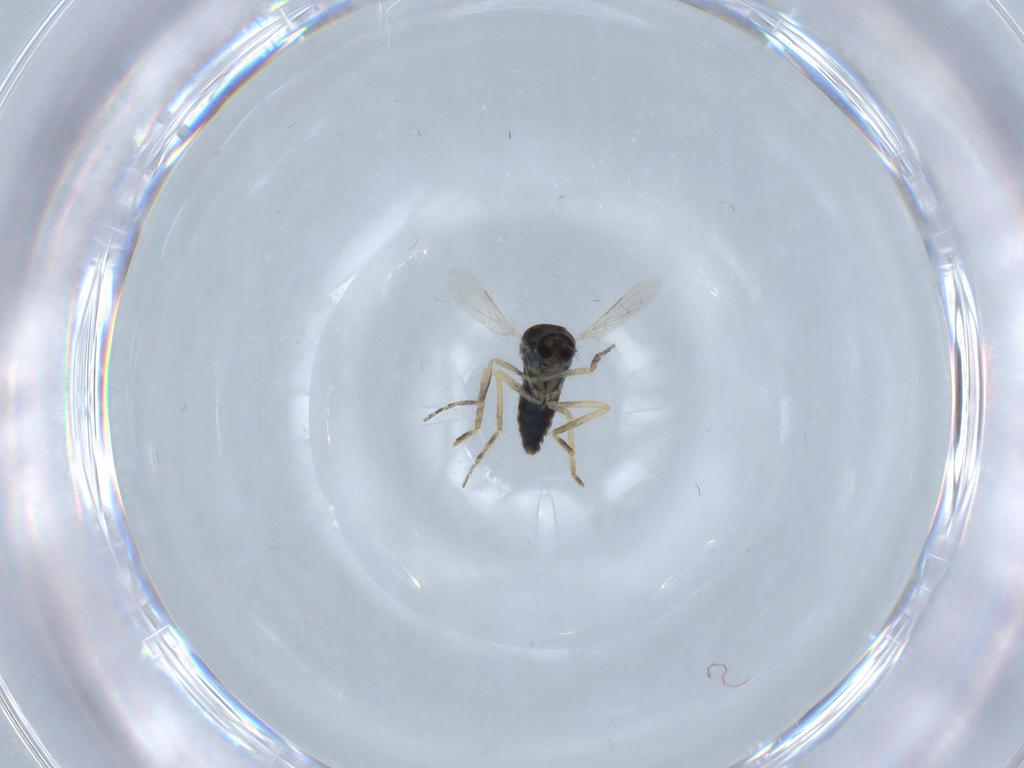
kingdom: Animalia
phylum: Arthropoda
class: Insecta
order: Diptera
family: Ceratopogonidae
